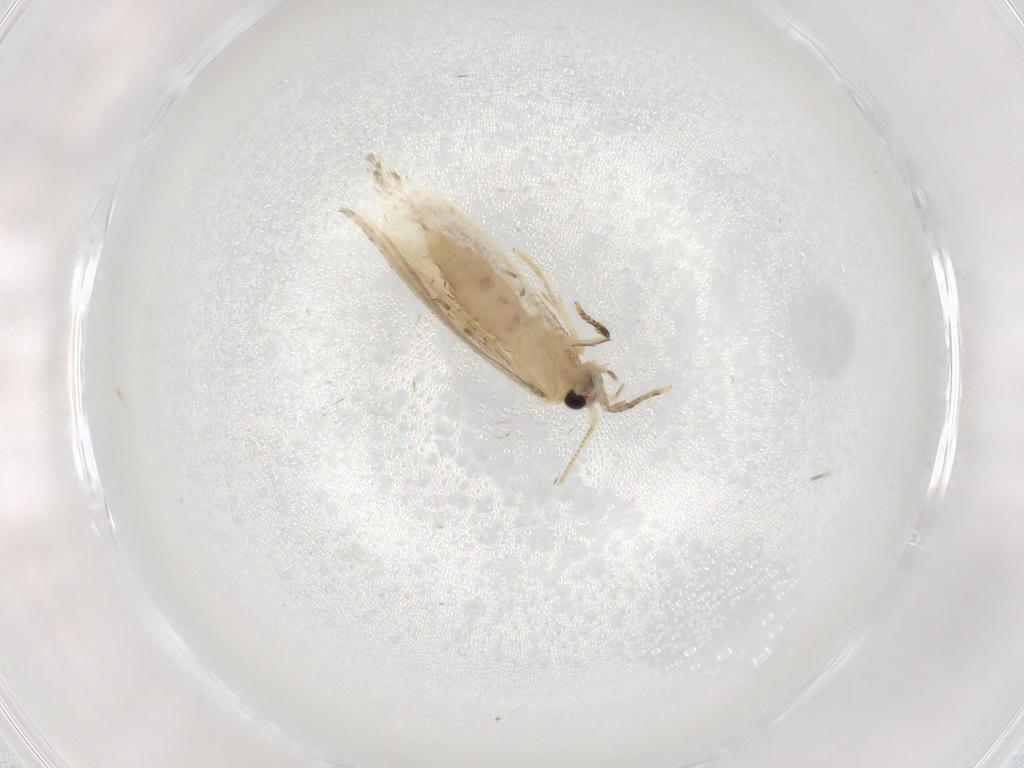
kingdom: Animalia
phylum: Arthropoda
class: Insecta
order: Lepidoptera
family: Nepticulidae
